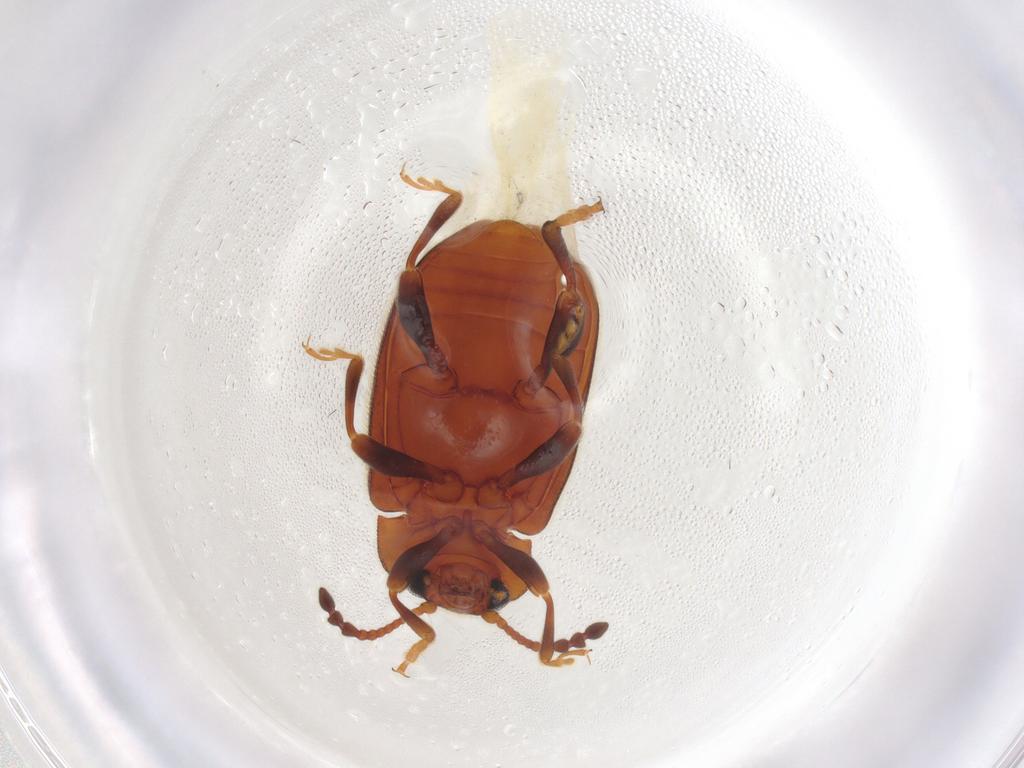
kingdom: Animalia
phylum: Arthropoda
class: Insecta
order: Coleoptera
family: Endomychidae
